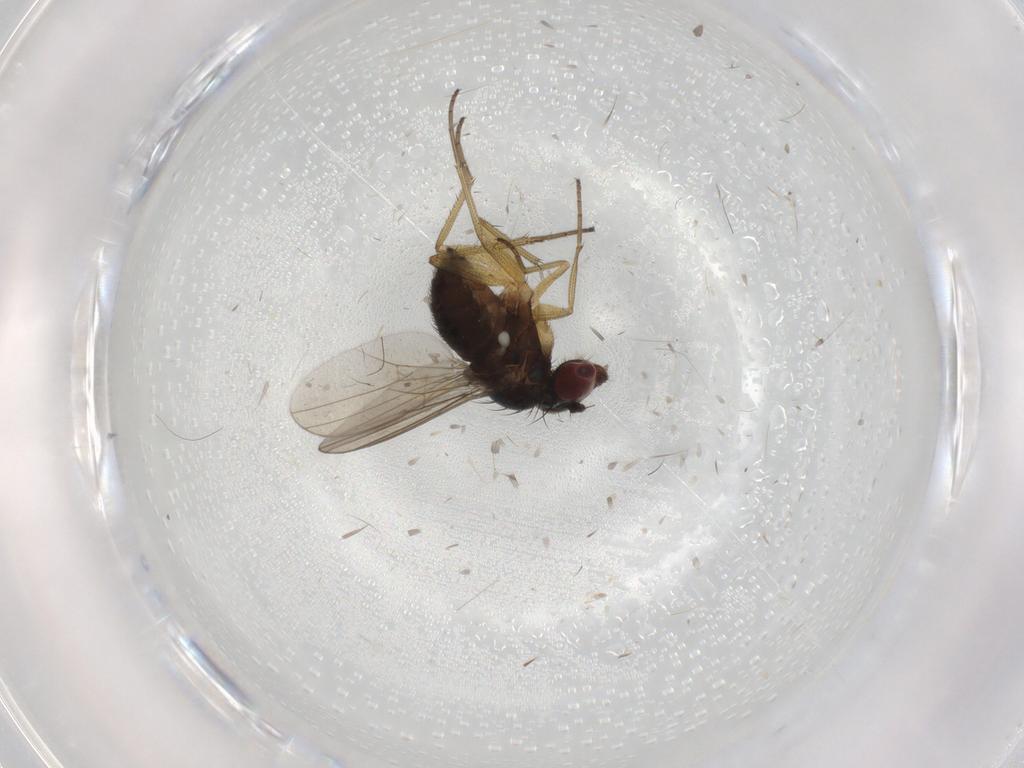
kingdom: Animalia
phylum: Arthropoda
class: Insecta
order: Diptera
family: Dolichopodidae
